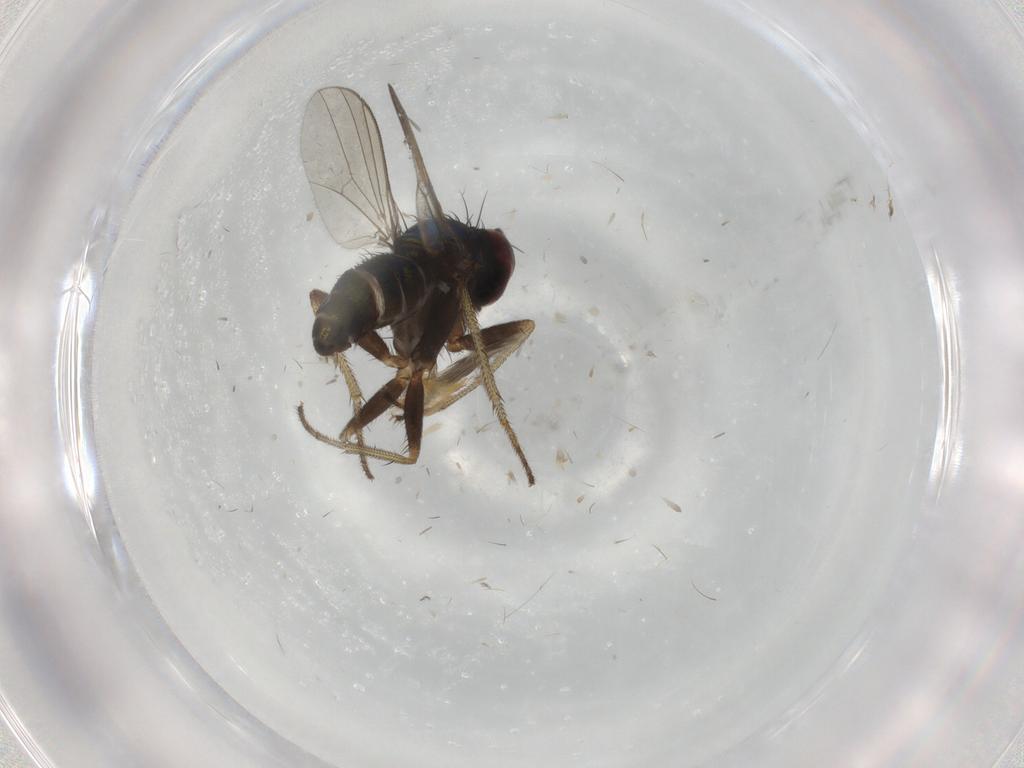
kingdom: Animalia
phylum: Arthropoda
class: Insecta
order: Diptera
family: Dolichopodidae
